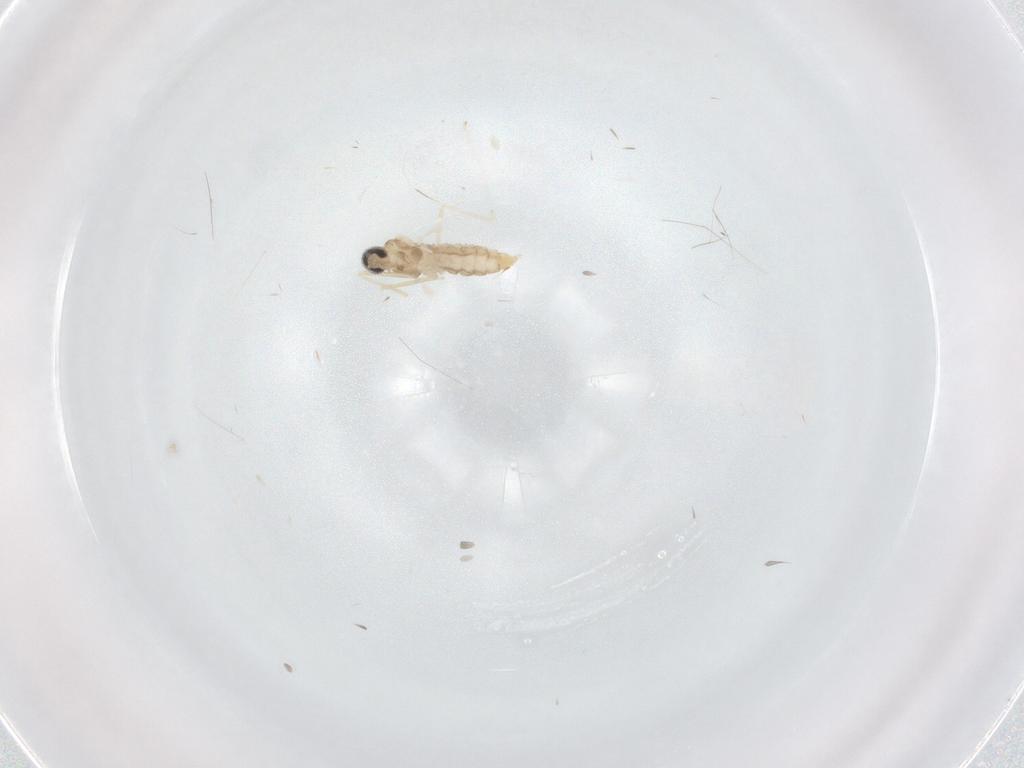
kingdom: Animalia
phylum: Arthropoda
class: Insecta
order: Diptera
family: Cecidomyiidae
